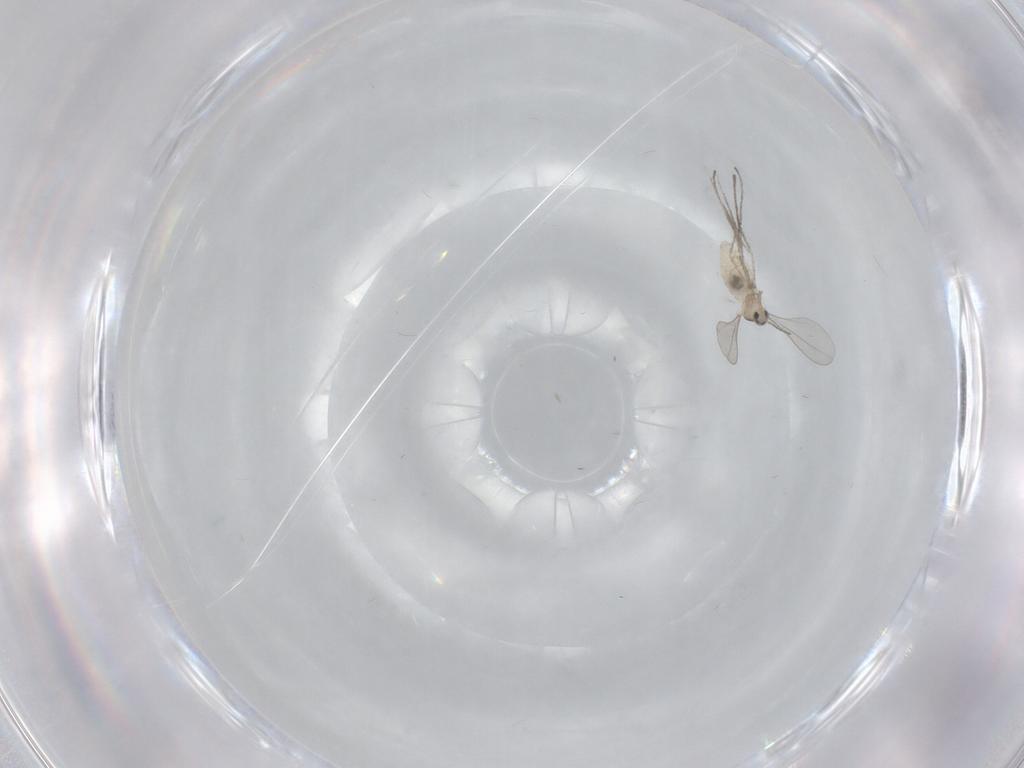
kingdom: Animalia
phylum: Arthropoda
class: Insecta
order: Diptera
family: Cecidomyiidae
